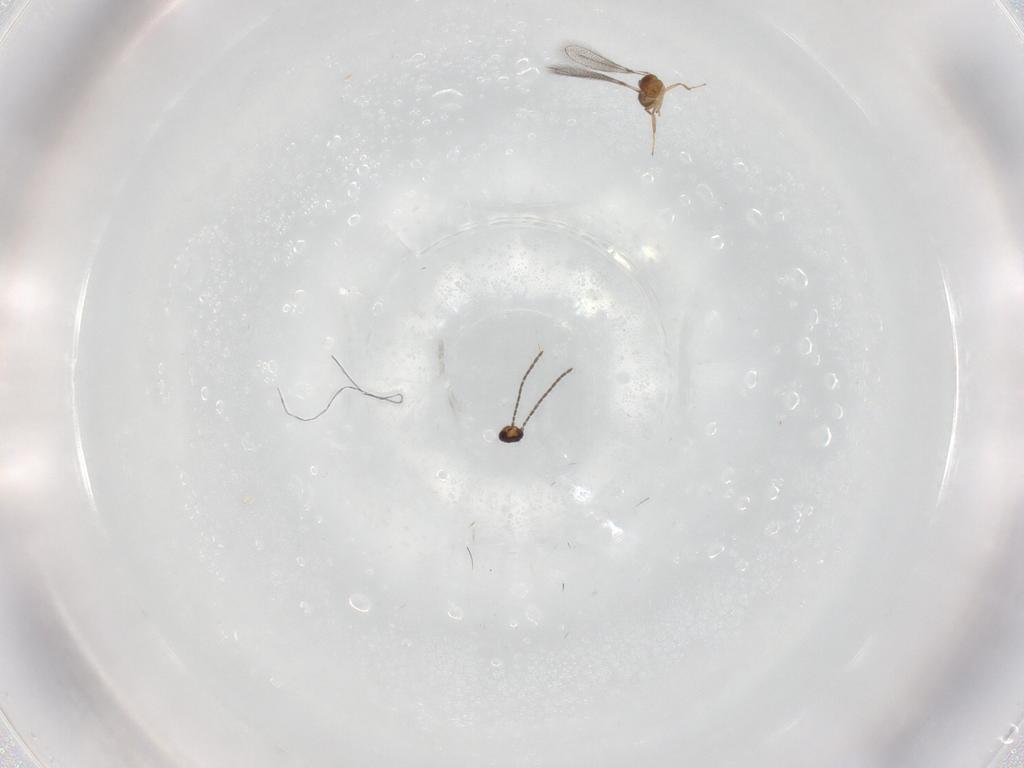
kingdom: Animalia
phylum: Arthropoda
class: Insecta
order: Hymenoptera
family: Mymaridae
